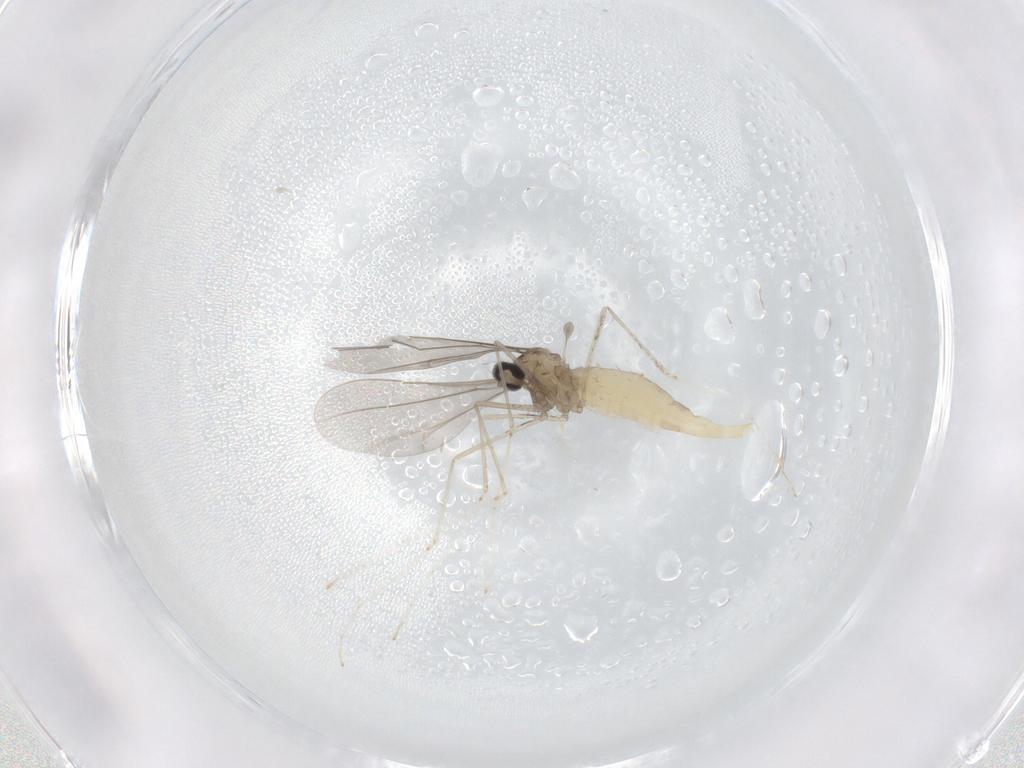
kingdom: Animalia
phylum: Arthropoda
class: Insecta
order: Diptera
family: Cecidomyiidae
